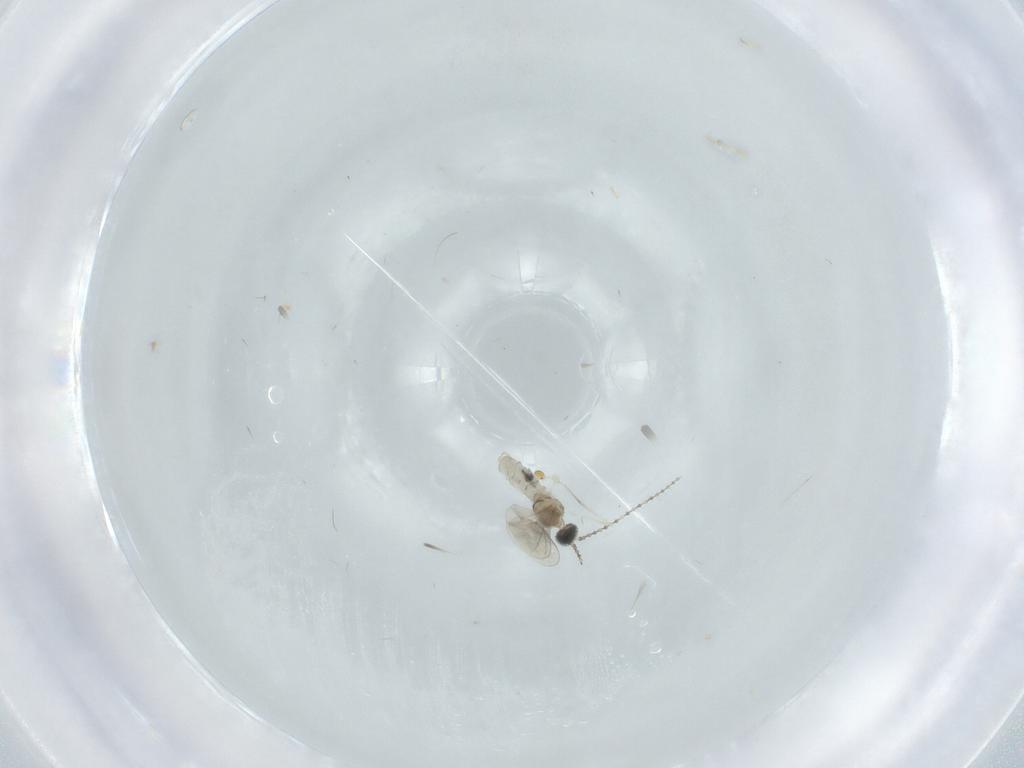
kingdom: Animalia
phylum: Arthropoda
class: Insecta
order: Diptera
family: Cecidomyiidae
